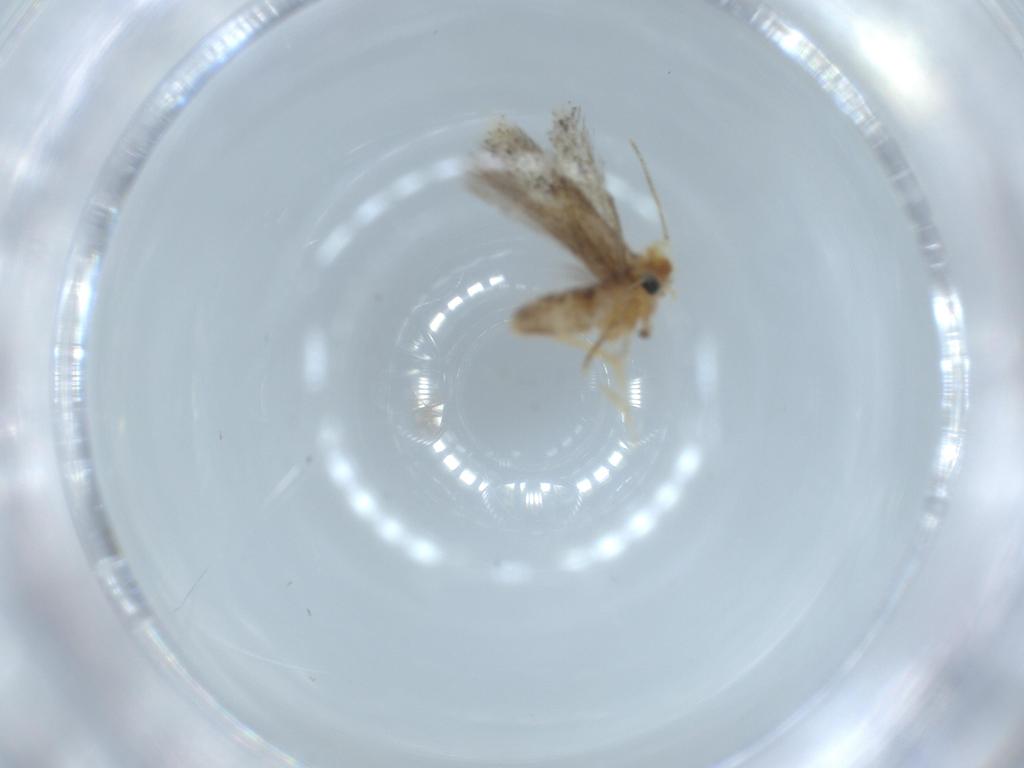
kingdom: Animalia
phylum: Arthropoda
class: Insecta
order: Lepidoptera
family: Nepticulidae
